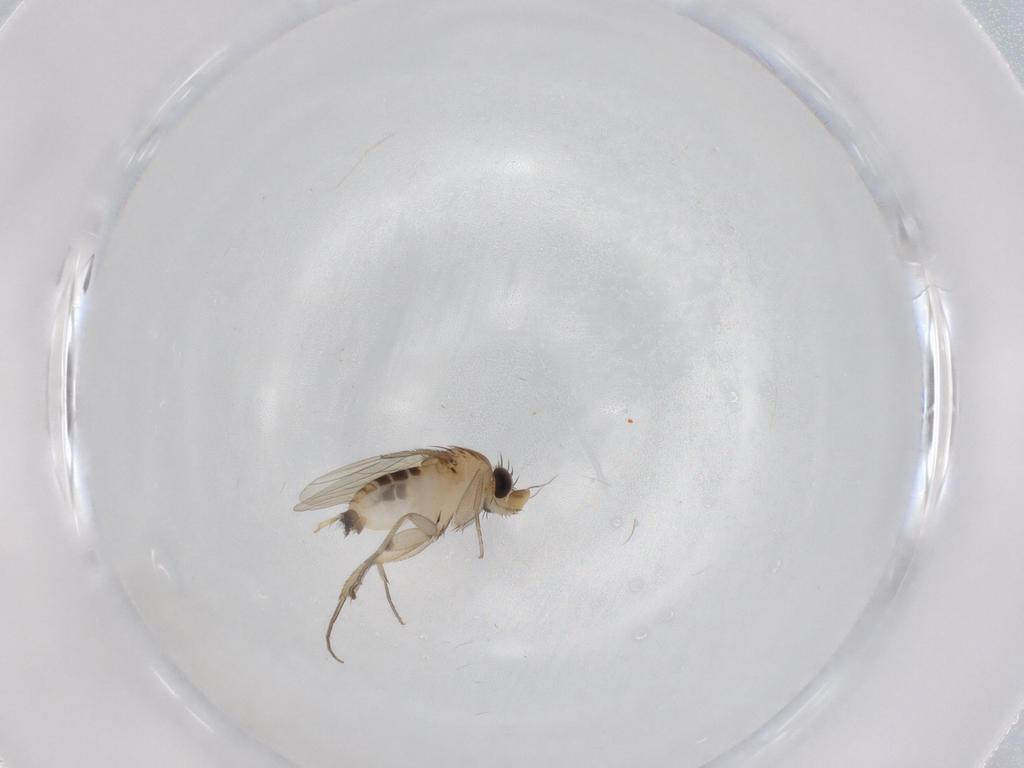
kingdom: Animalia
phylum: Arthropoda
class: Insecta
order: Diptera
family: Phoridae
